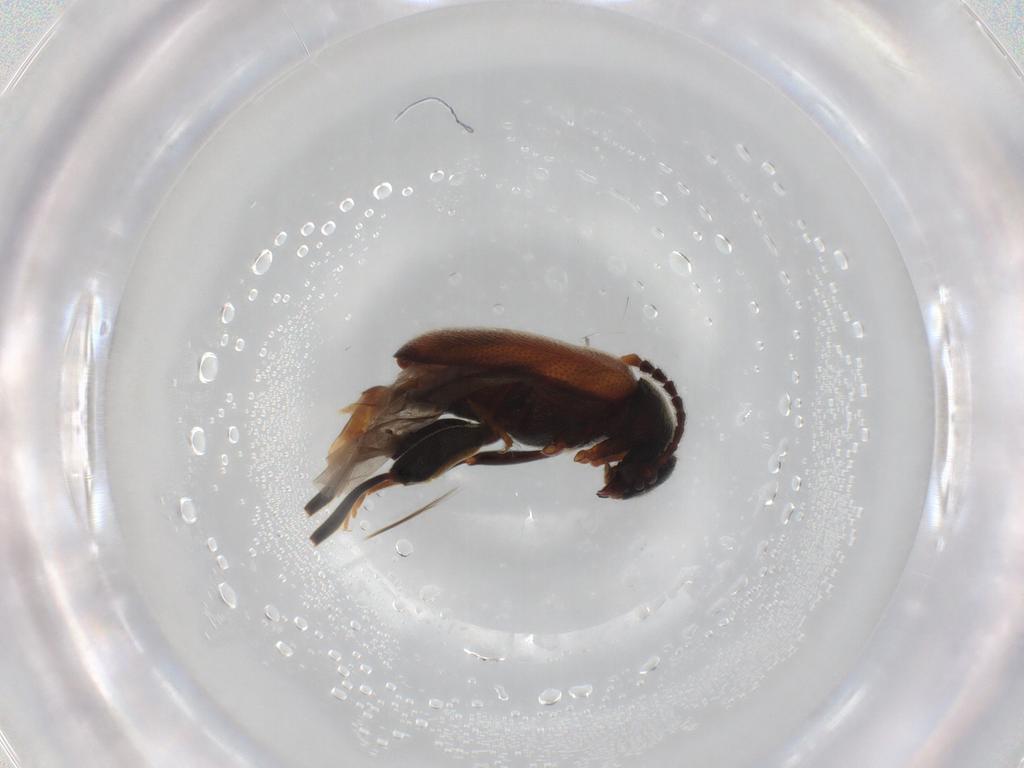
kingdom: Animalia
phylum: Arthropoda
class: Insecta
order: Coleoptera
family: Aderidae
